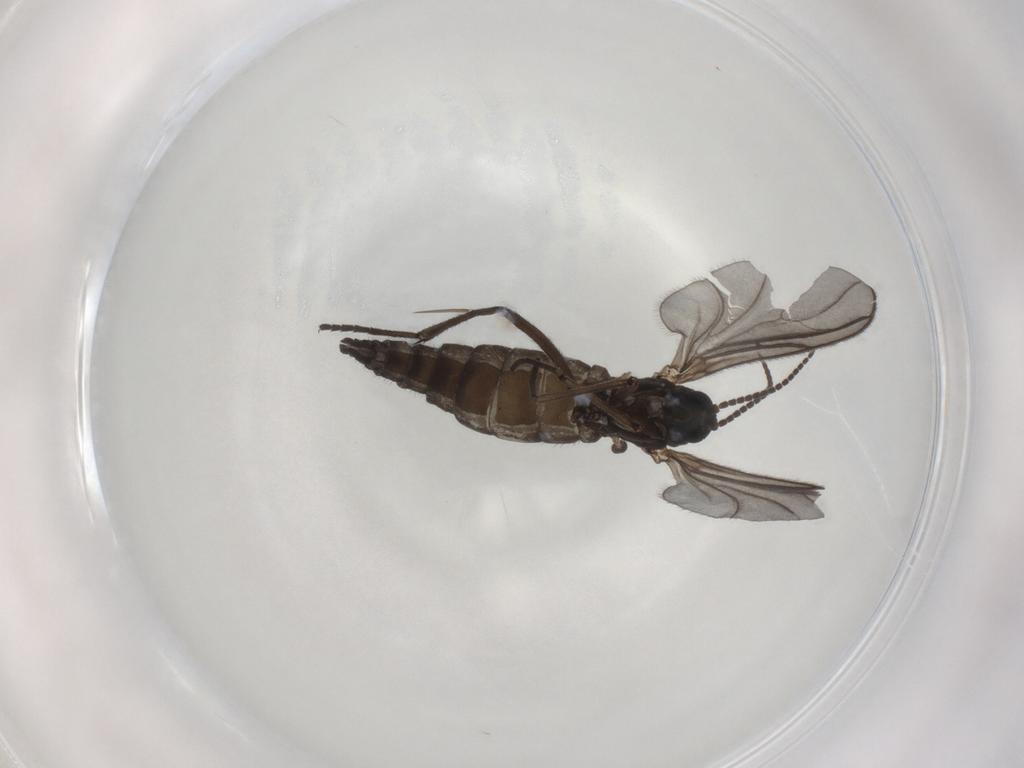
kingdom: Animalia
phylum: Arthropoda
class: Insecta
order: Diptera
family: Sciaridae
